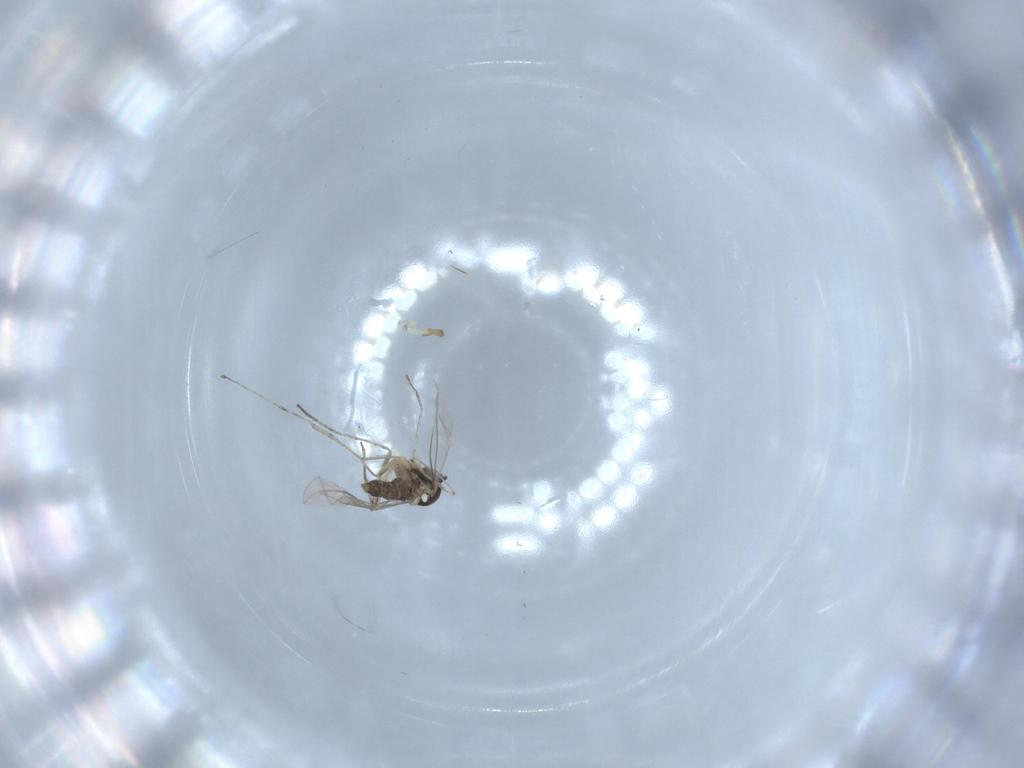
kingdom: Animalia
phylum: Arthropoda
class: Insecta
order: Diptera
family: Cecidomyiidae
